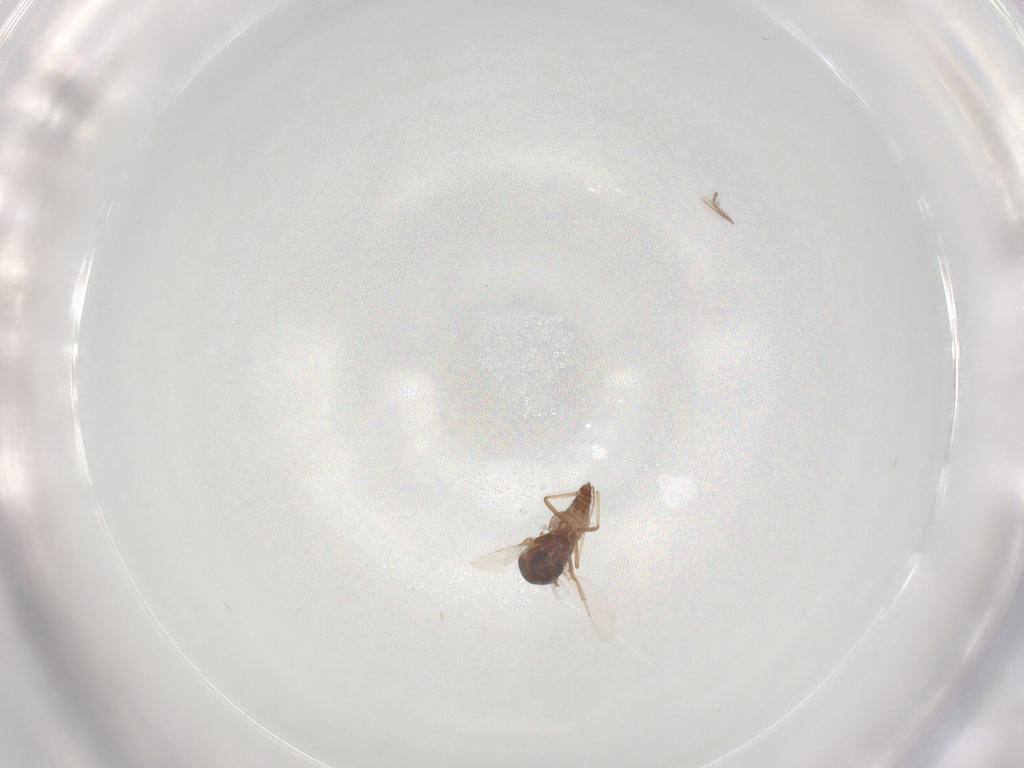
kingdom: Animalia
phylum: Arthropoda
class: Insecta
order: Diptera
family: Ceratopogonidae
